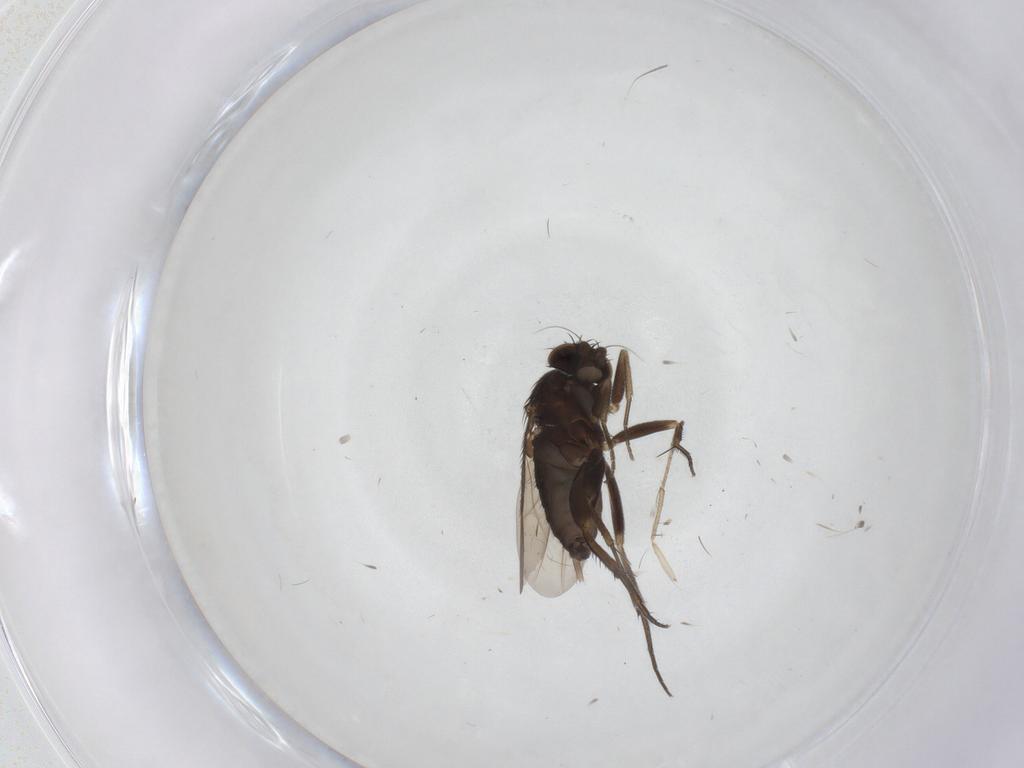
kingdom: Animalia
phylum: Arthropoda
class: Insecta
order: Diptera
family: Phoridae
